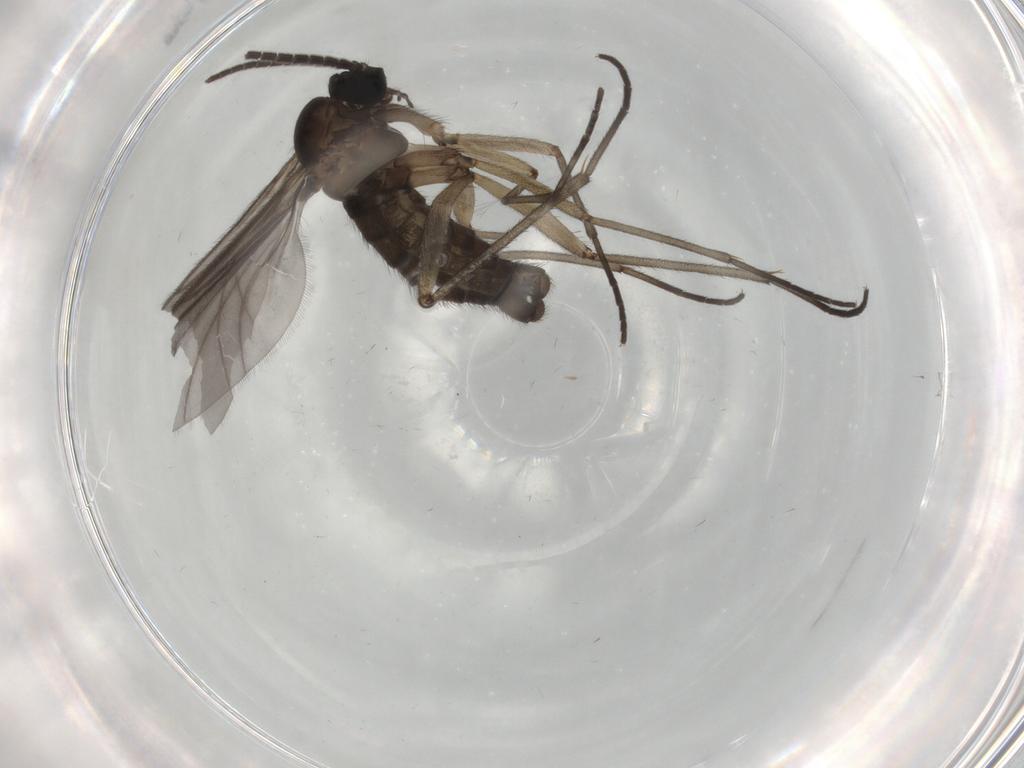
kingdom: Animalia
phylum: Arthropoda
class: Insecta
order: Diptera
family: Sciaridae
